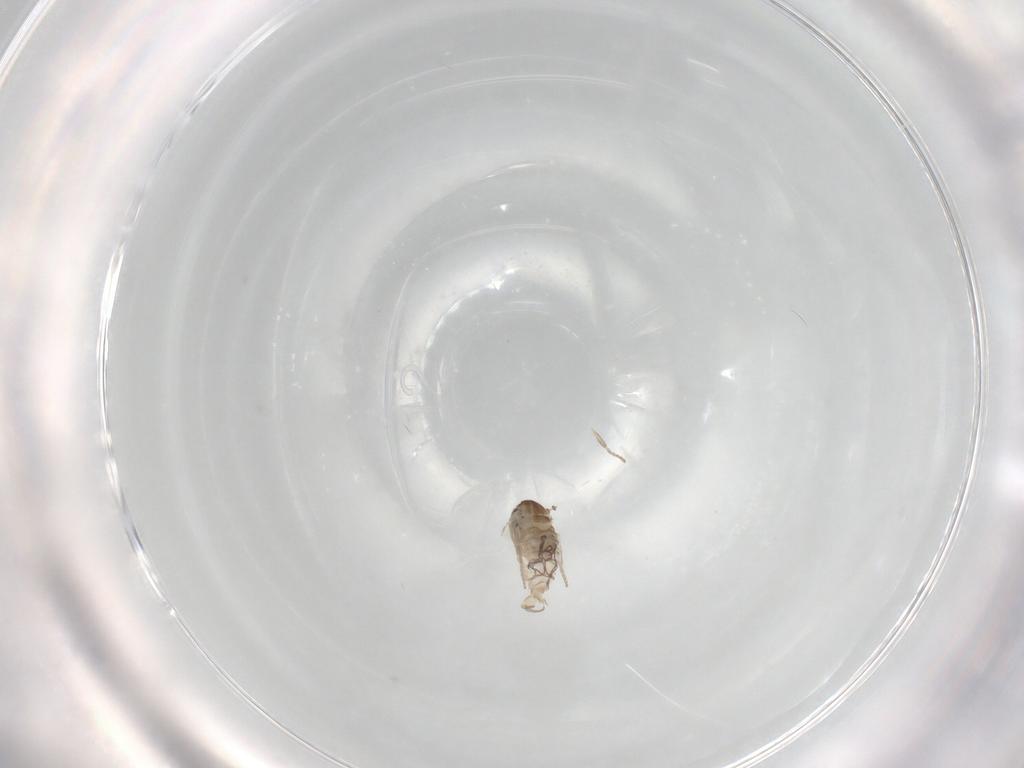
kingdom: Animalia
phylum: Arthropoda
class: Insecta
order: Diptera
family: Psychodidae
